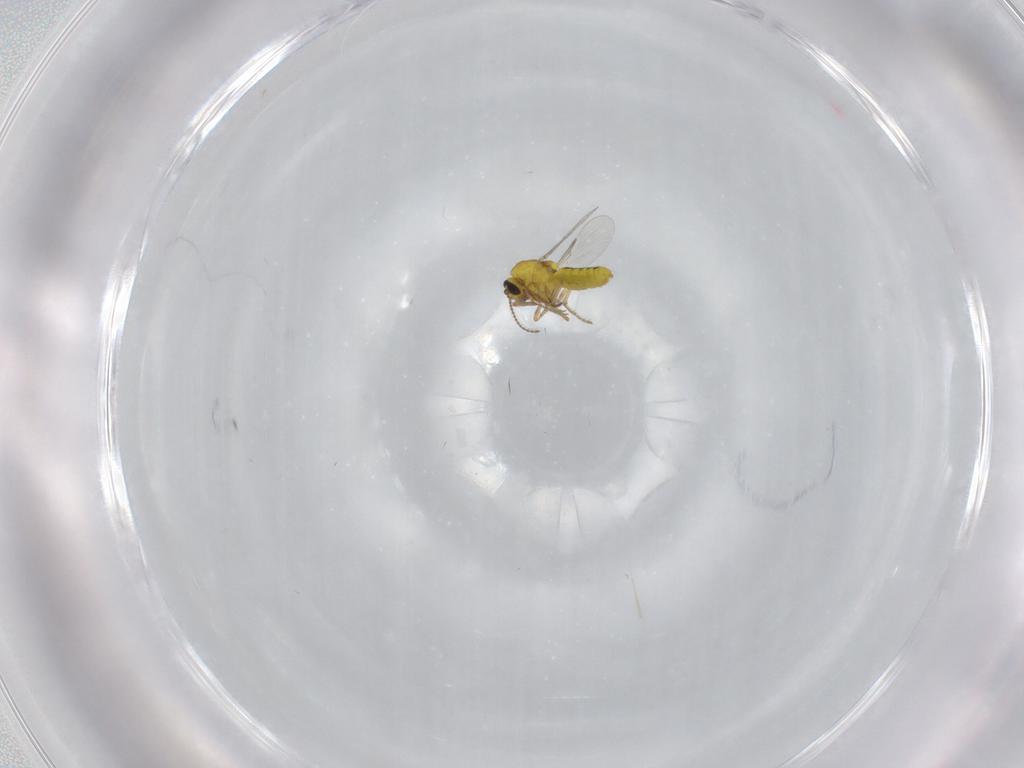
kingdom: Animalia
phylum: Arthropoda
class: Insecta
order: Diptera
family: Ceratopogonidae
